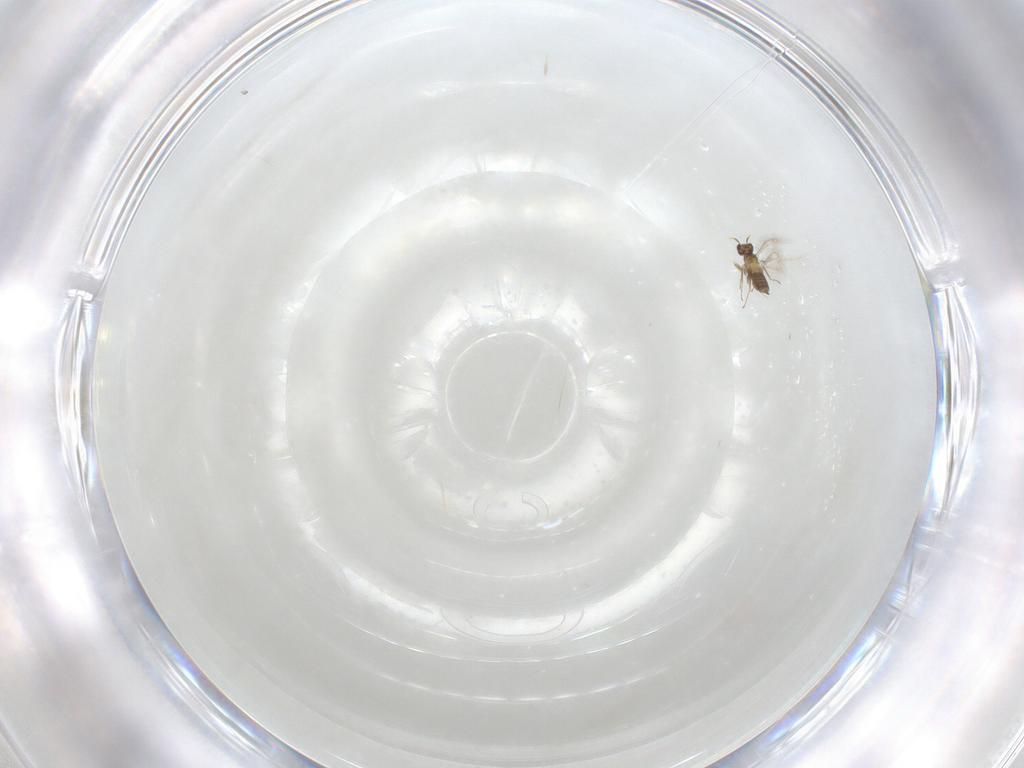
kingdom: Animalia
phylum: Arthropoda
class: Insecta
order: Hymenoptera
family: Mymaridae
